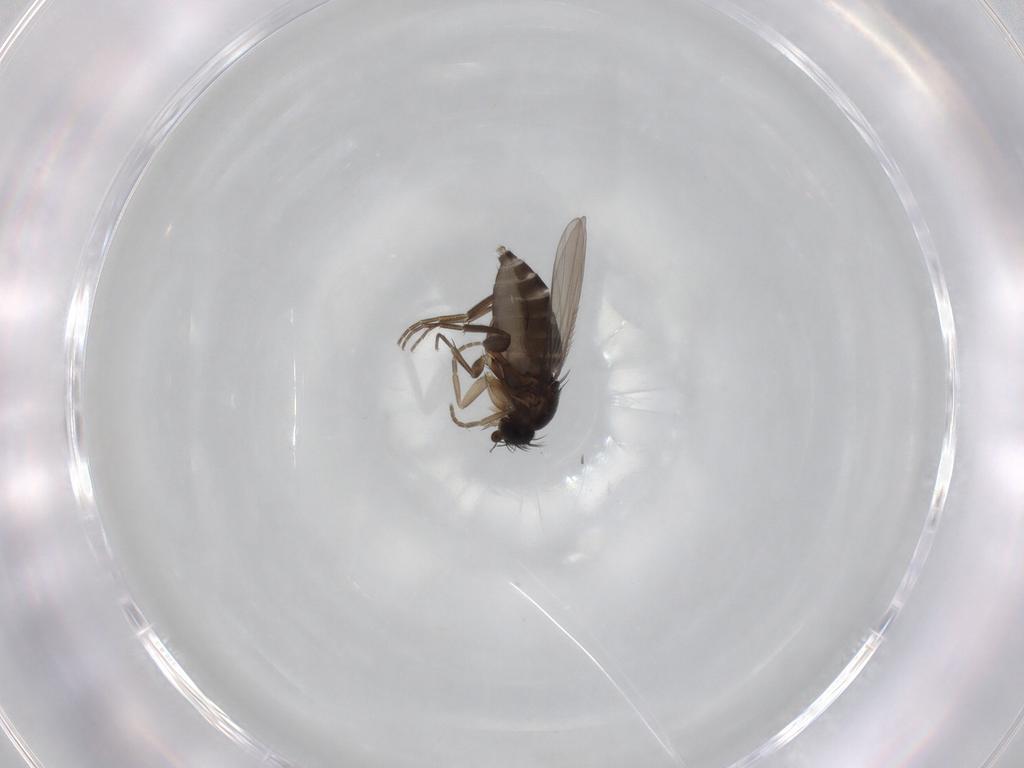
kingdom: Animalia
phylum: Arthropoda
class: Insecta
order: Diptera
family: Phoridae
